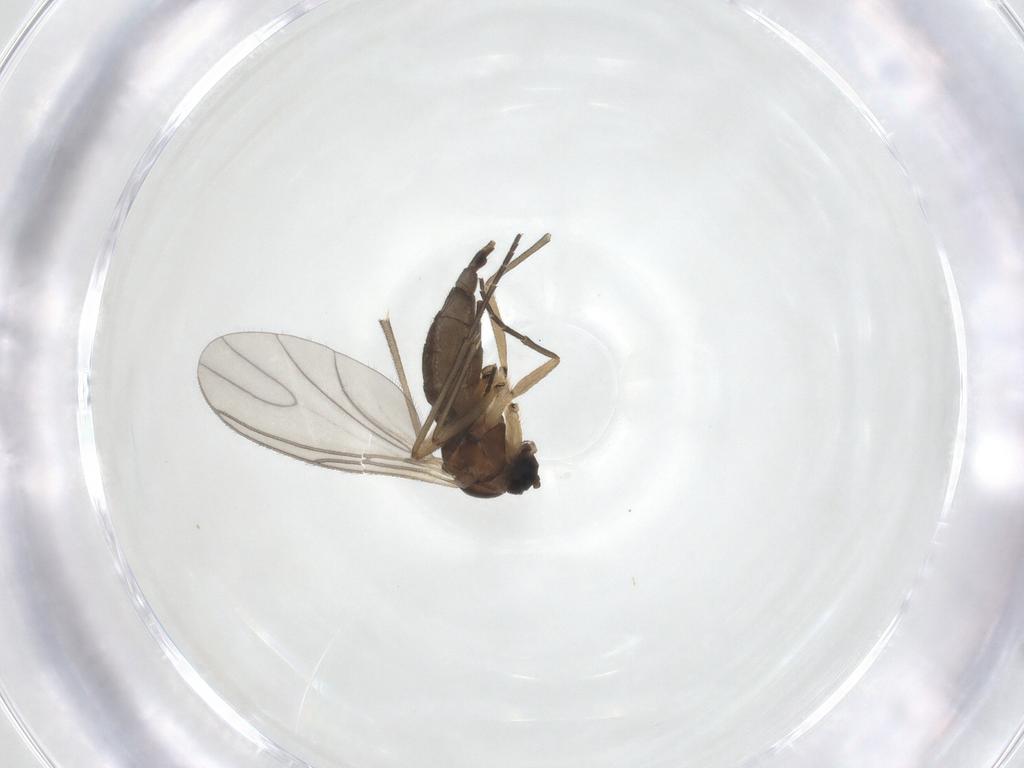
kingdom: Animalia
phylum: Arthropoda
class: Insecta
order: Diptera
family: Sciaridae
